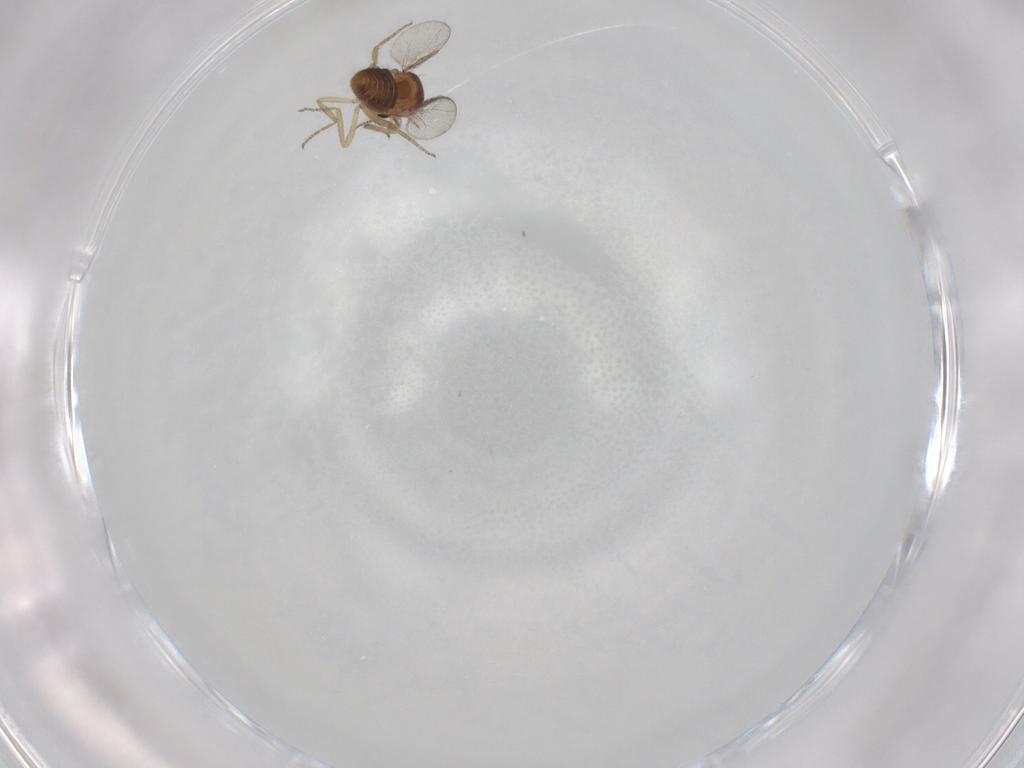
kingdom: Animalia
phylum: Arthropoda
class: Insecta
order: Diptera
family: Ceratopogonidae
